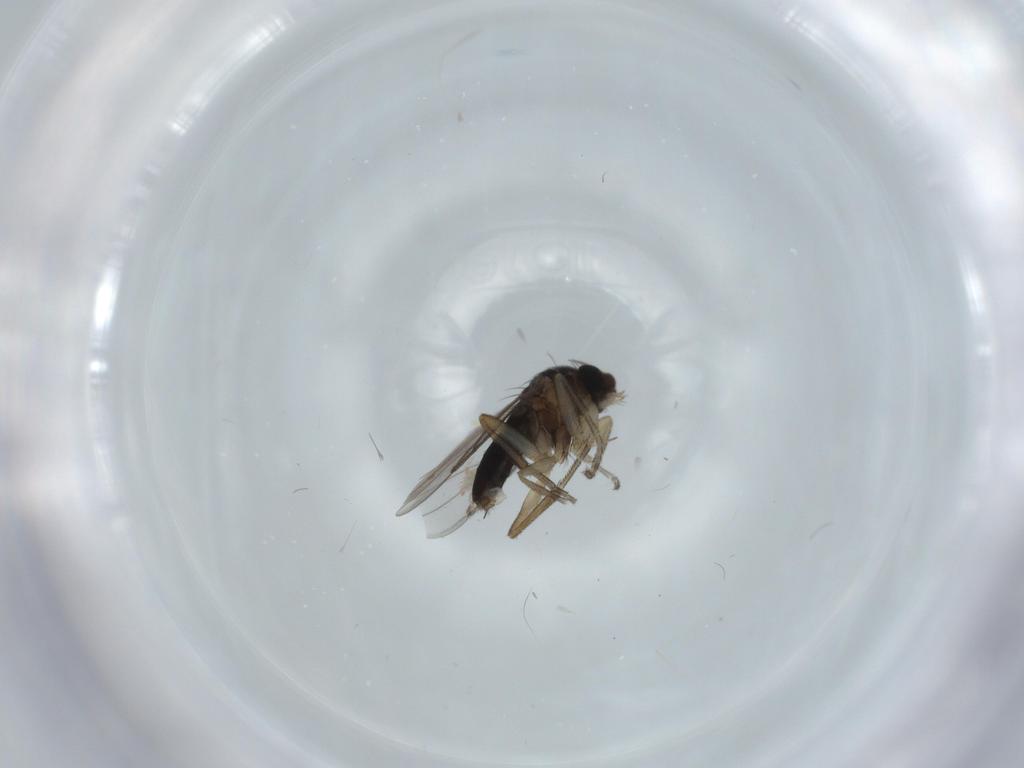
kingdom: Animalia
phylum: Arthropoda
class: Insecta
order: Diptera
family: Phoridae
